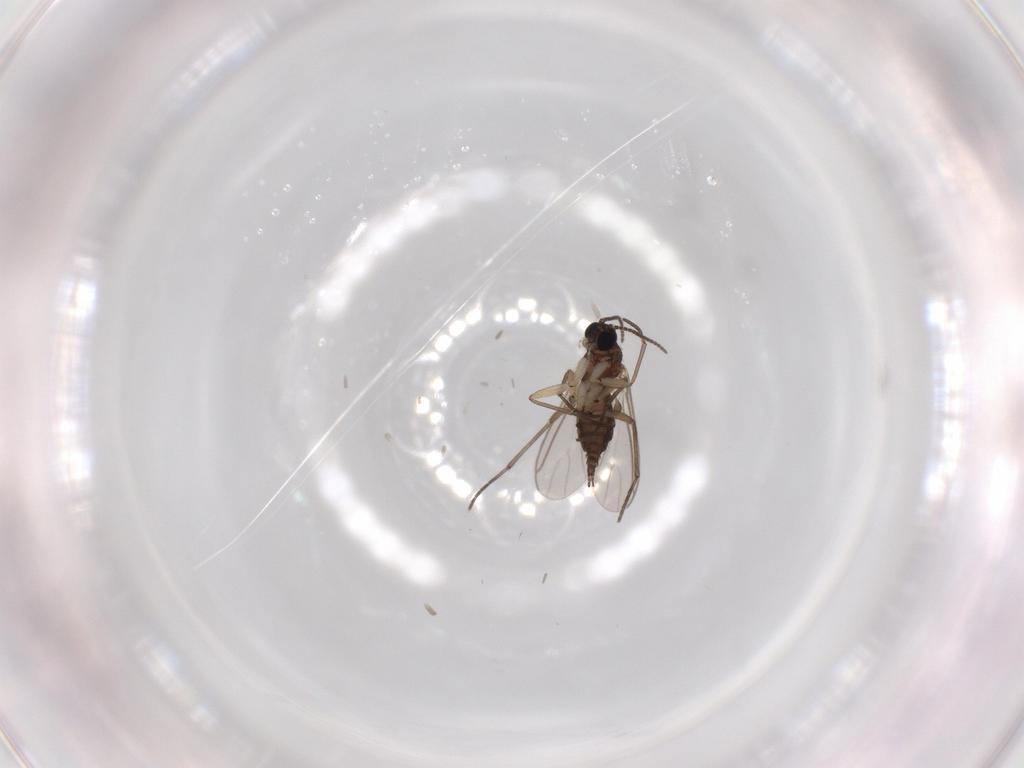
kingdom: Animalia
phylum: Arthropoda
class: Insecta
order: Diptera
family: Sciaridae
